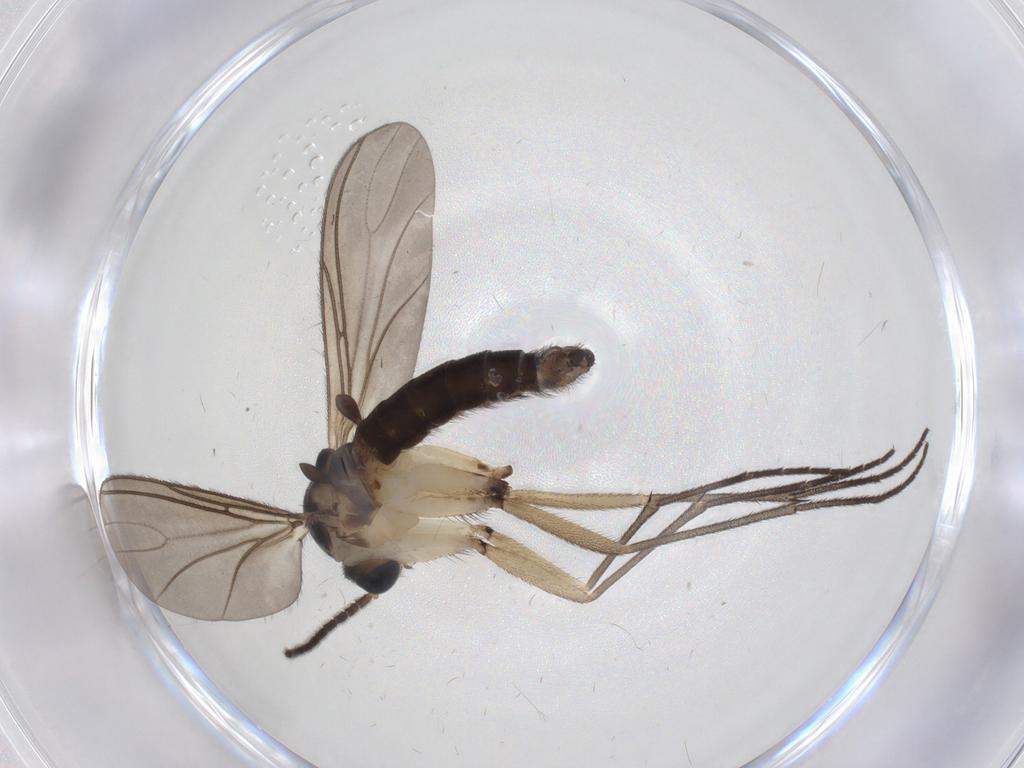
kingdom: Animalia
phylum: Arthropoda
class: Insecta
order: Diptera
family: Sciaridae
